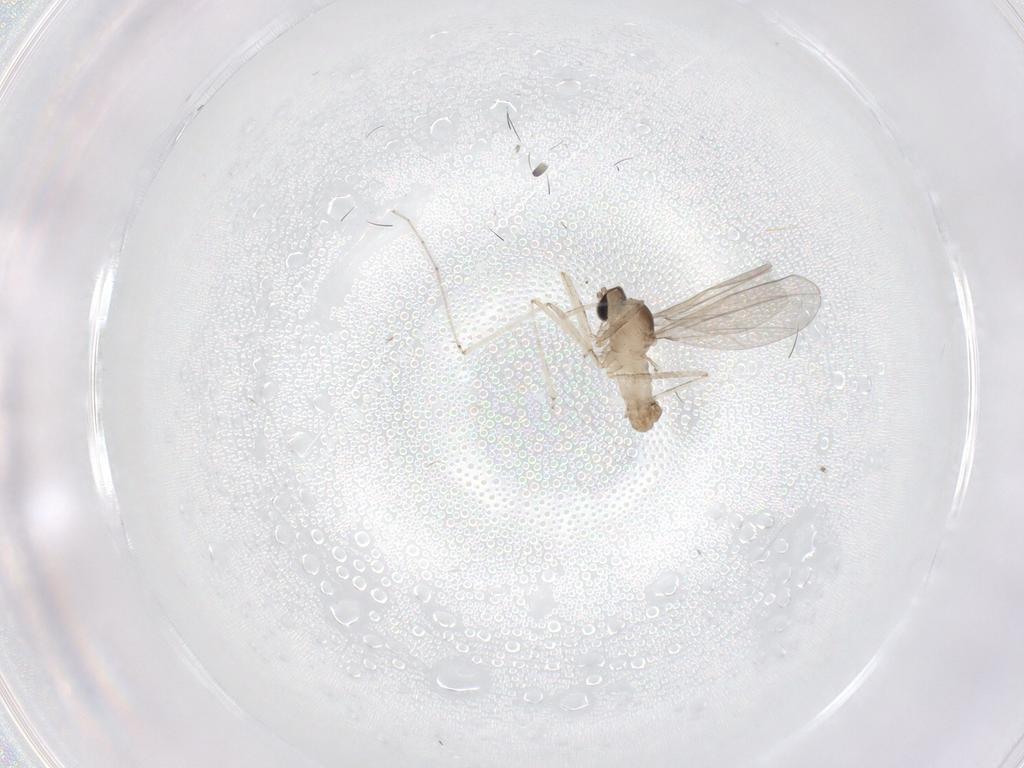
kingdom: Animalia
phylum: Arthropoda
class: Insecta
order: Diptera
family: Cecidomyiidae
